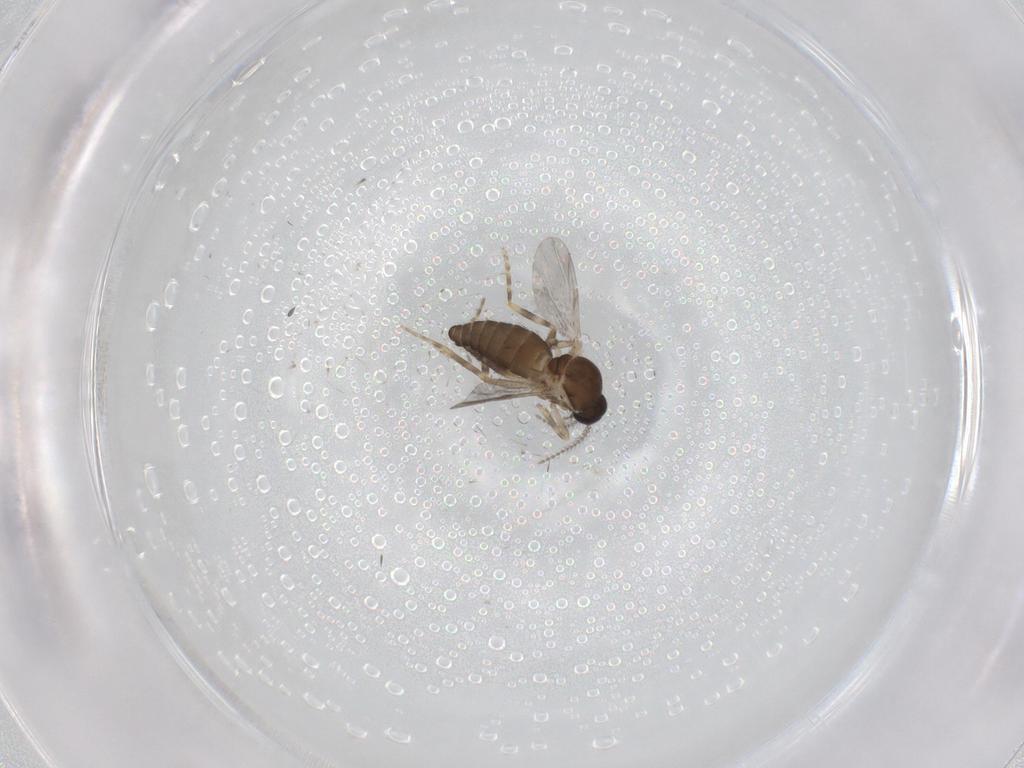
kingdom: Animalia
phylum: Arthropoda
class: Insecta
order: Diptera
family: Ceratopogonidae
